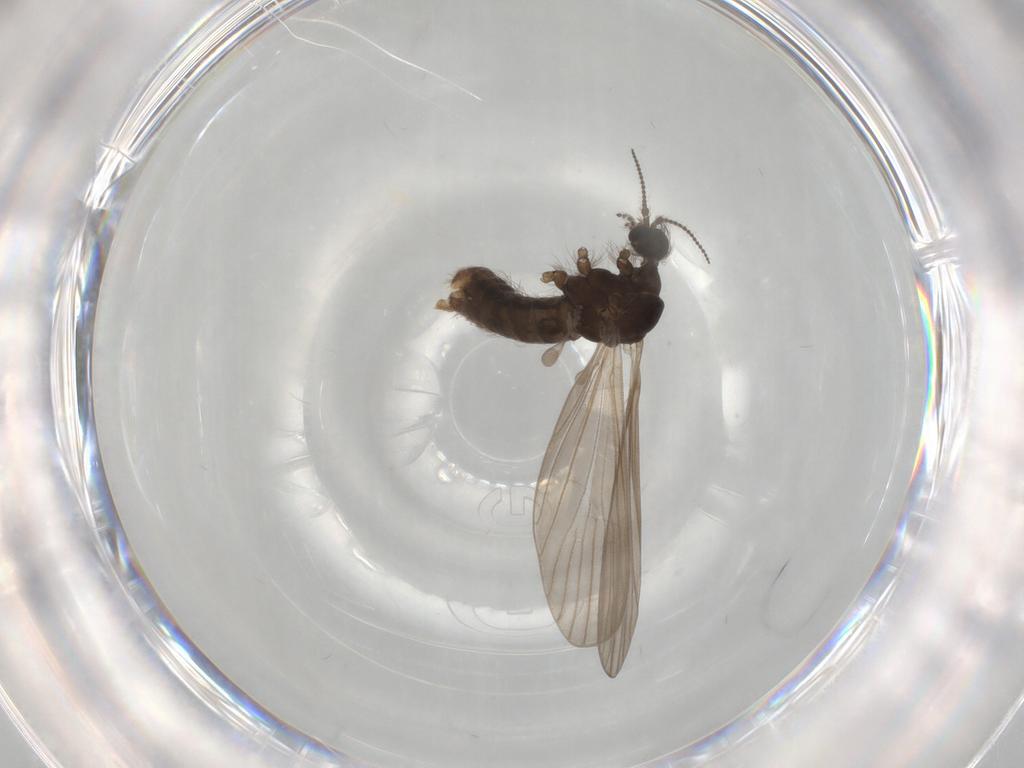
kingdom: Animalia
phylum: Arthropoda
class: Insecta
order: Diptera
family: Phoridae
